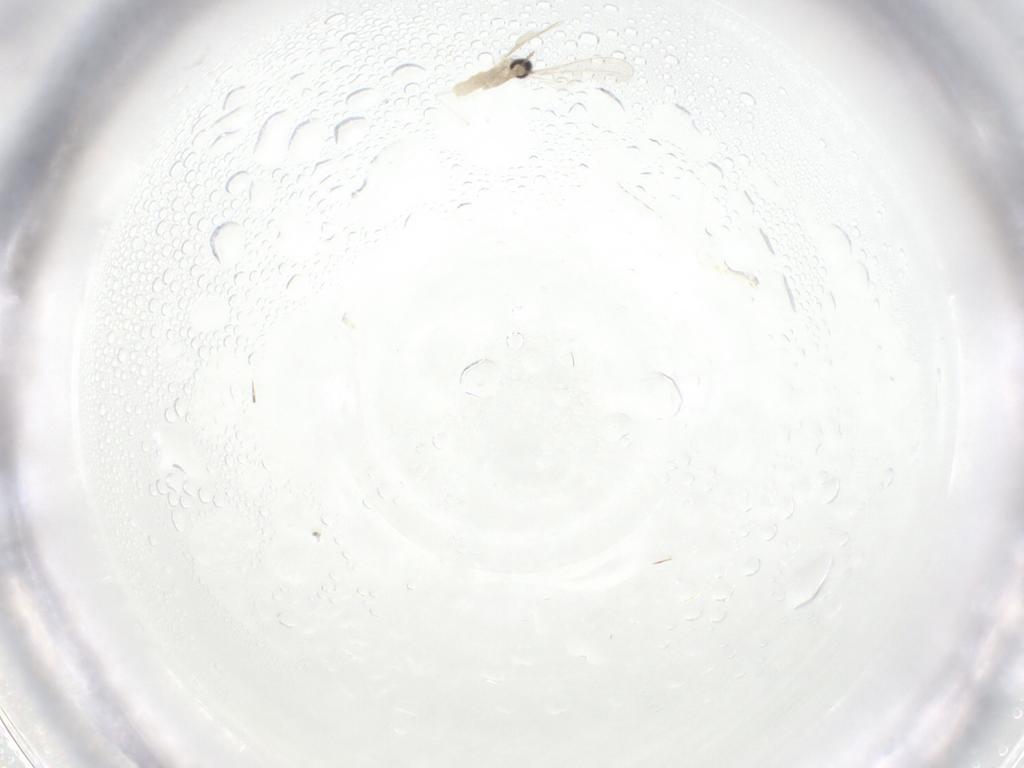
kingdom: Animalia
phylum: Arthropoda
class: Insecta
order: Diptera
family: Cecidomyiidae
